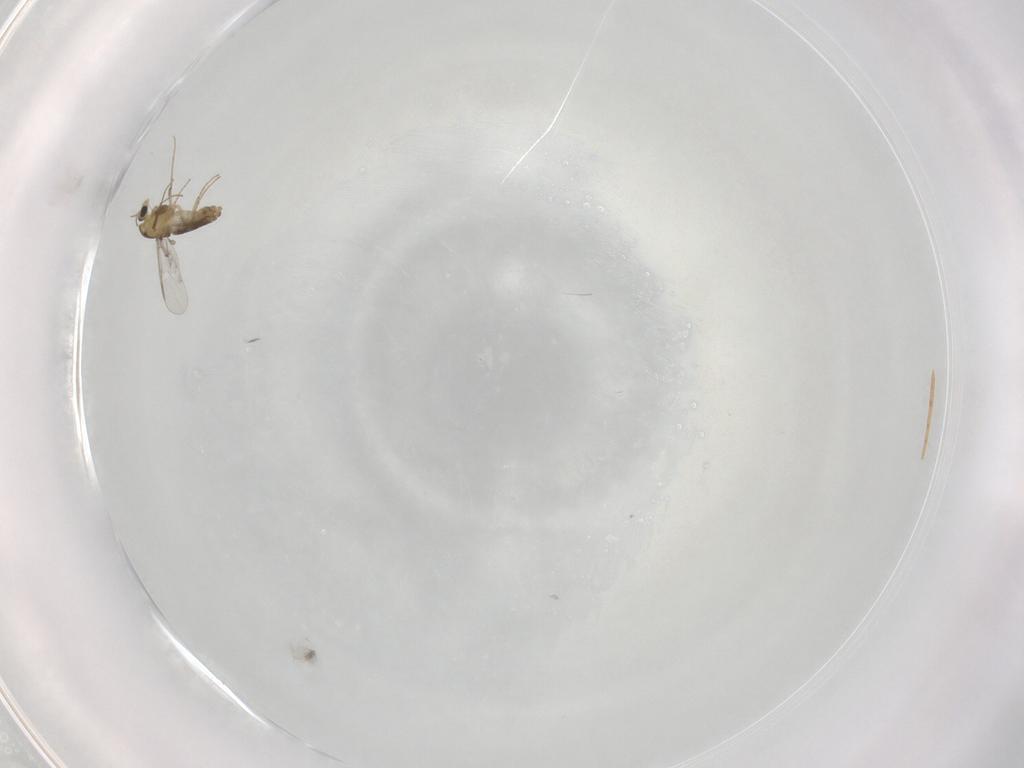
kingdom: Animalia
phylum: Arthropoda
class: Insecta
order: Diptera
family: Chironomidae
